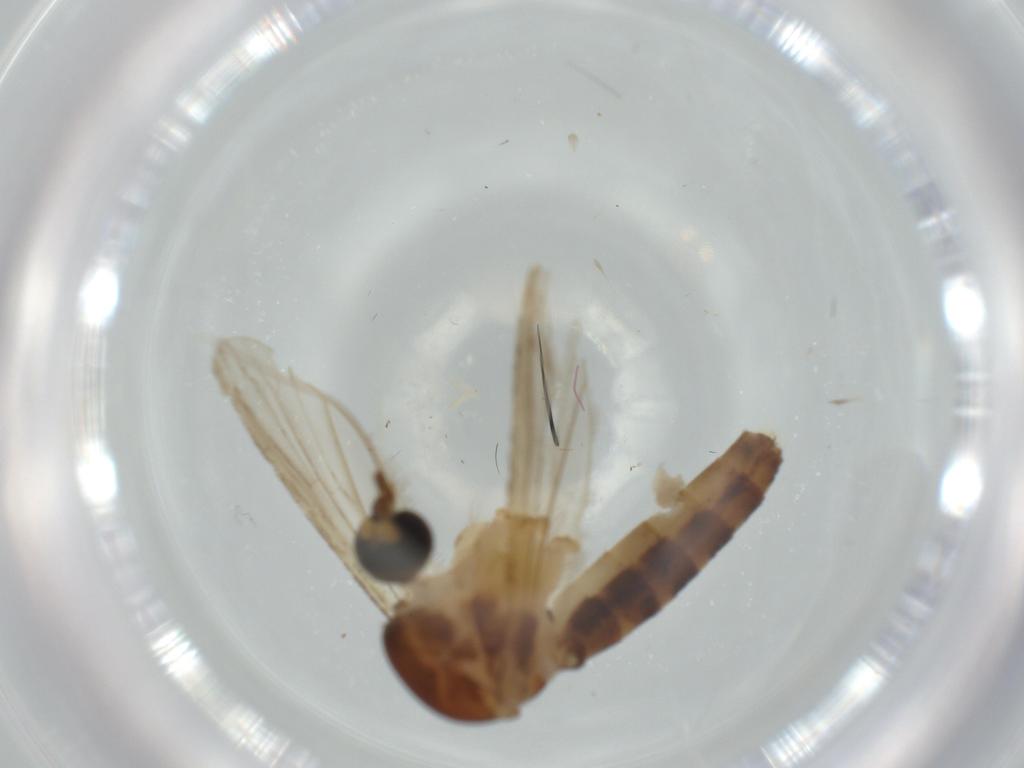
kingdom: Animalia
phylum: Arthropoda
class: Insecta
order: Diptera
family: Cecidomyiidae
